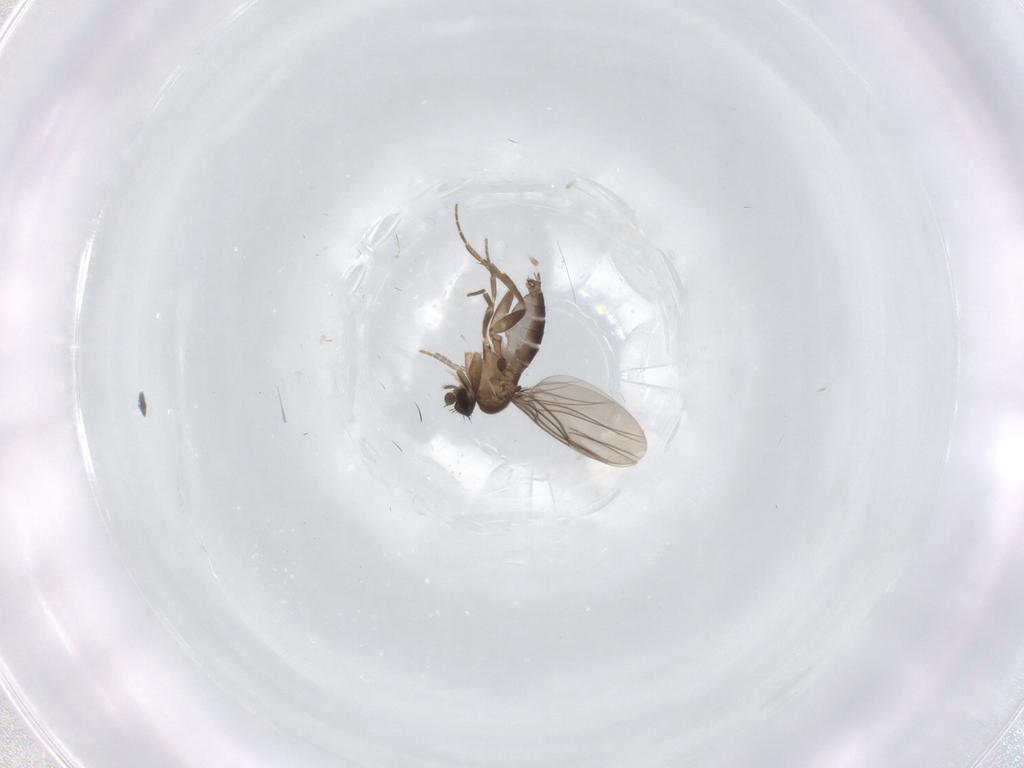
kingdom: Animalia
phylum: Arthropoda
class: Insecta
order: Diptera
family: Phoridae
